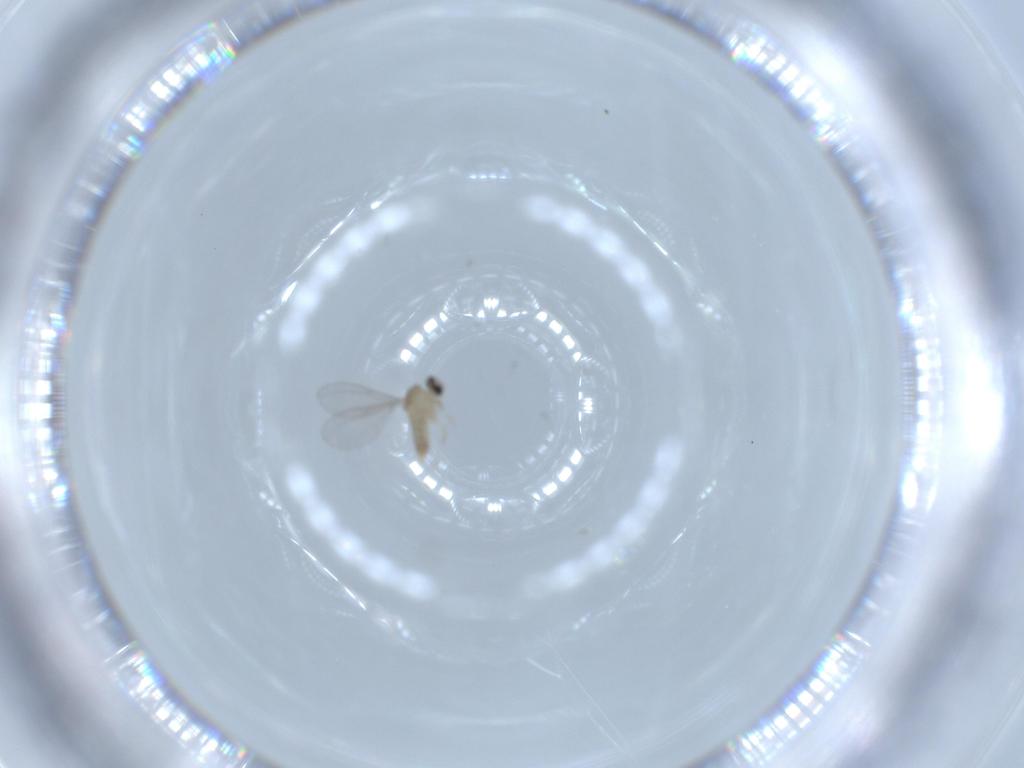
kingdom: Animalia
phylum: Arthropoda
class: Insecta
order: Diptera
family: Cecidomyiidae
